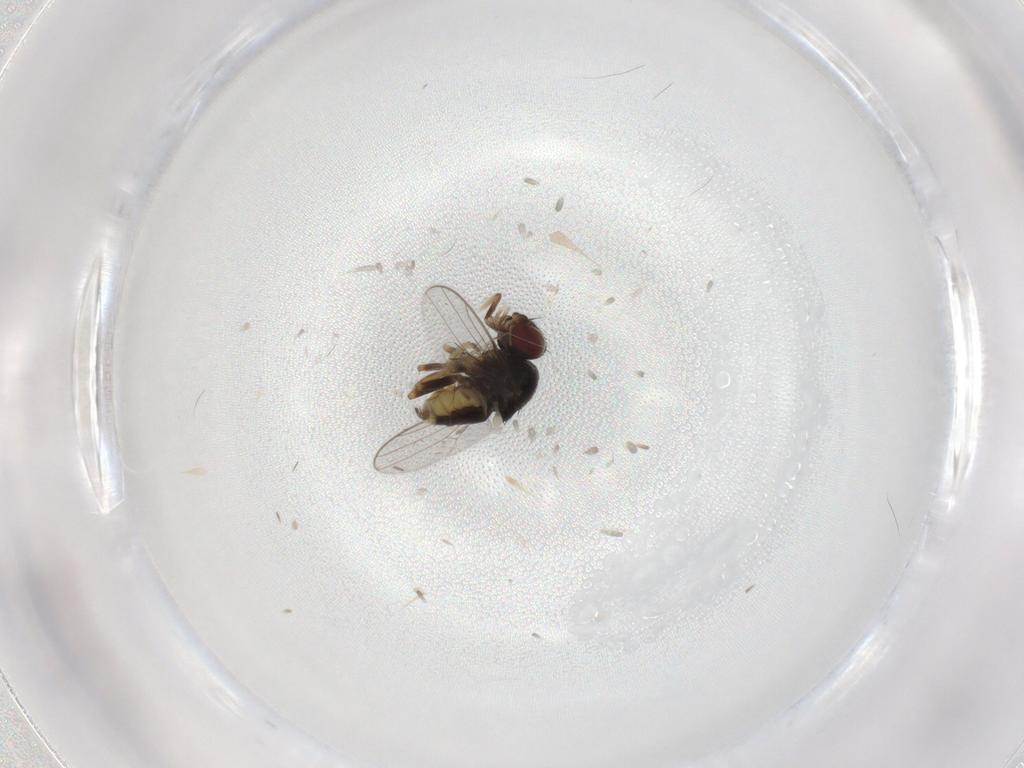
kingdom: Animalia
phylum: Arthropoda
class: Insecta
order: Diptera
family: Chloropidae
